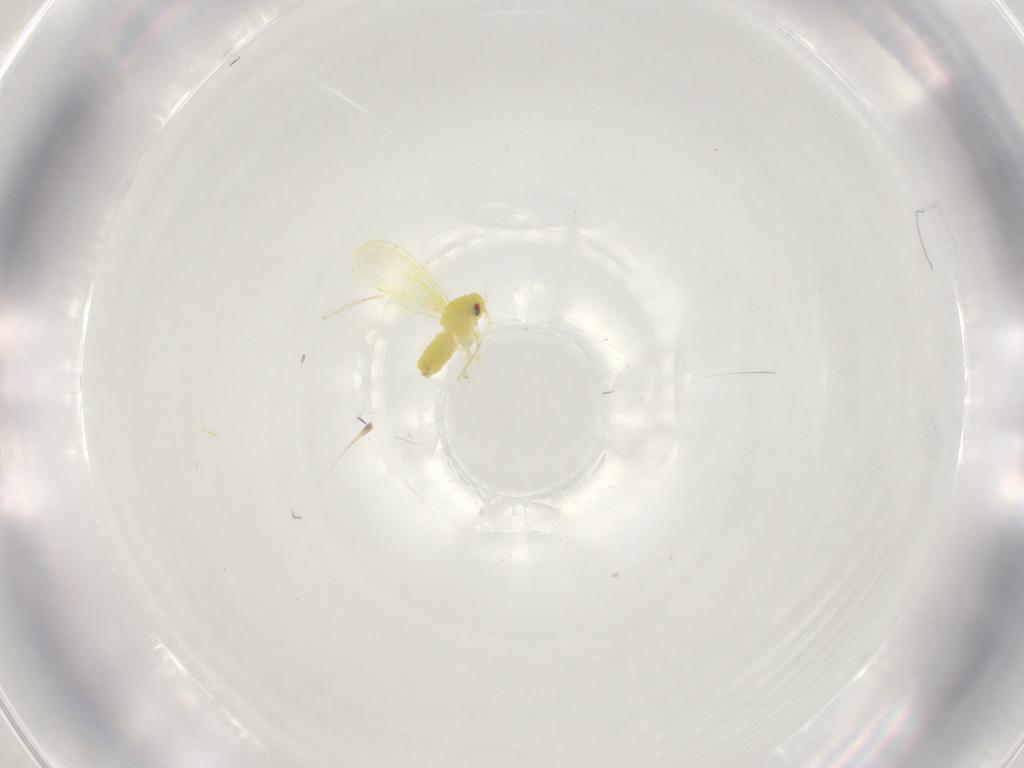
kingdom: Animalia
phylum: Arthropoda
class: Insecta
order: Hemiptera
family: Aleyrodidae
